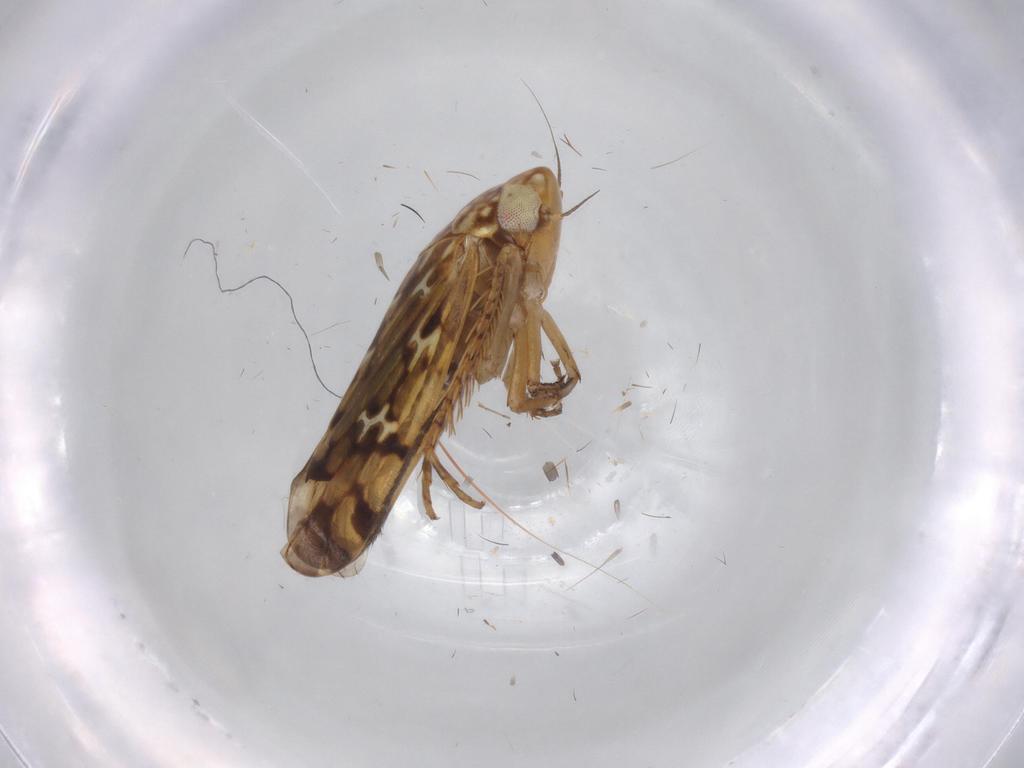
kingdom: Animalia
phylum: Arthropoda
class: Insecta
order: Hemiptera
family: Cicadellidae
